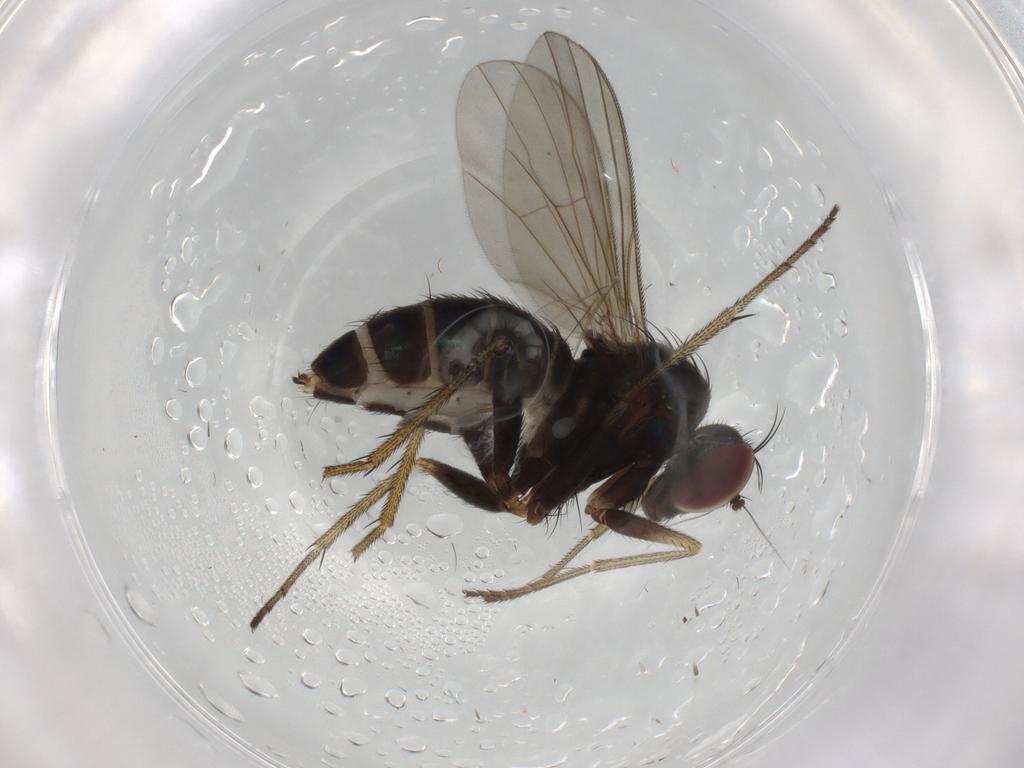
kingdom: Animalia
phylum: Arthropoda
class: Insecta
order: Diptera
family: Dolichopodidae
